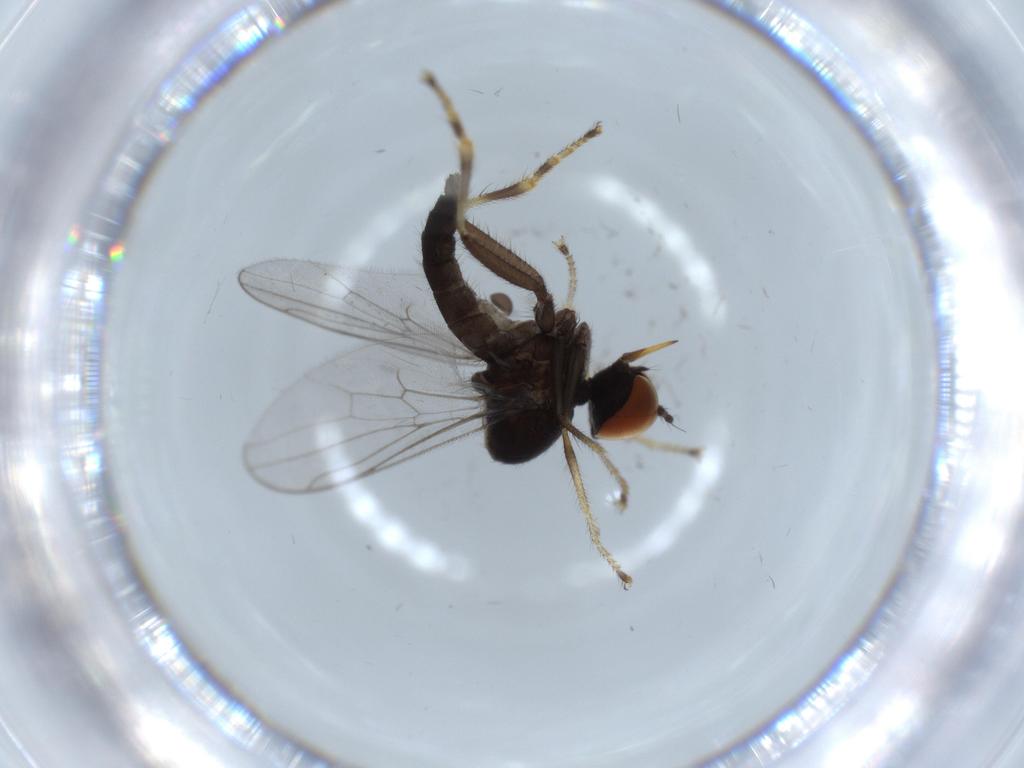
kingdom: Animalia
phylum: Arthropoda
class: Insecta
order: Diptera
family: Hybotidae
